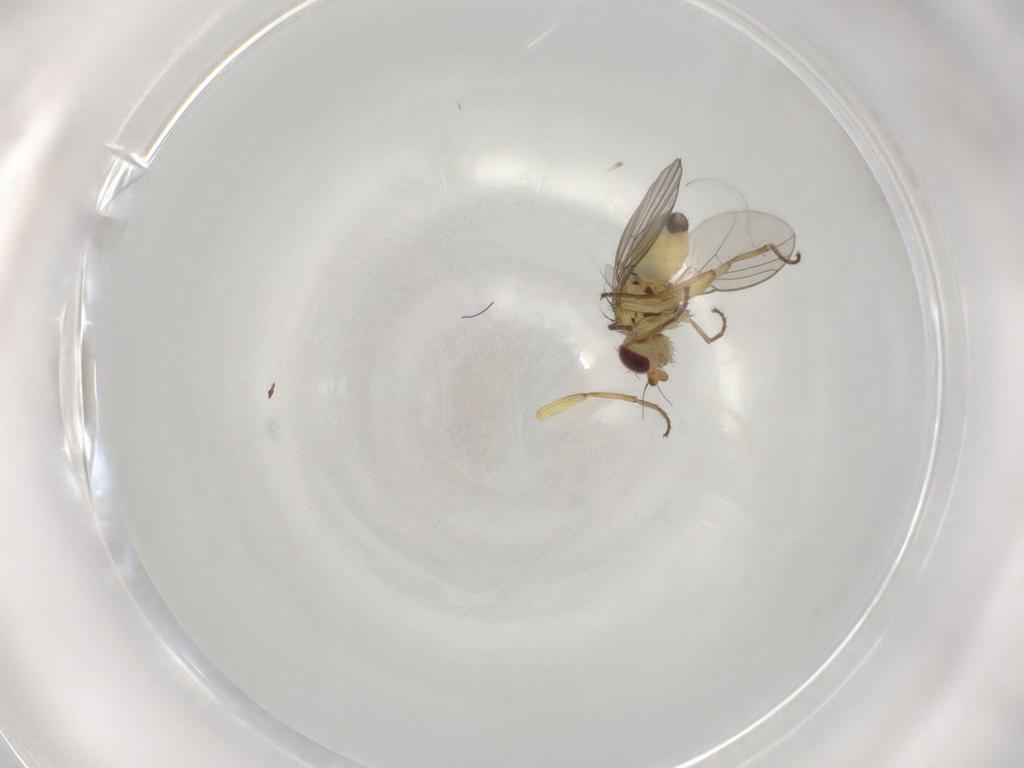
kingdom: Animalia
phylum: Arthropoda
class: Insecta
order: Diptera
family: Agromyzidae
